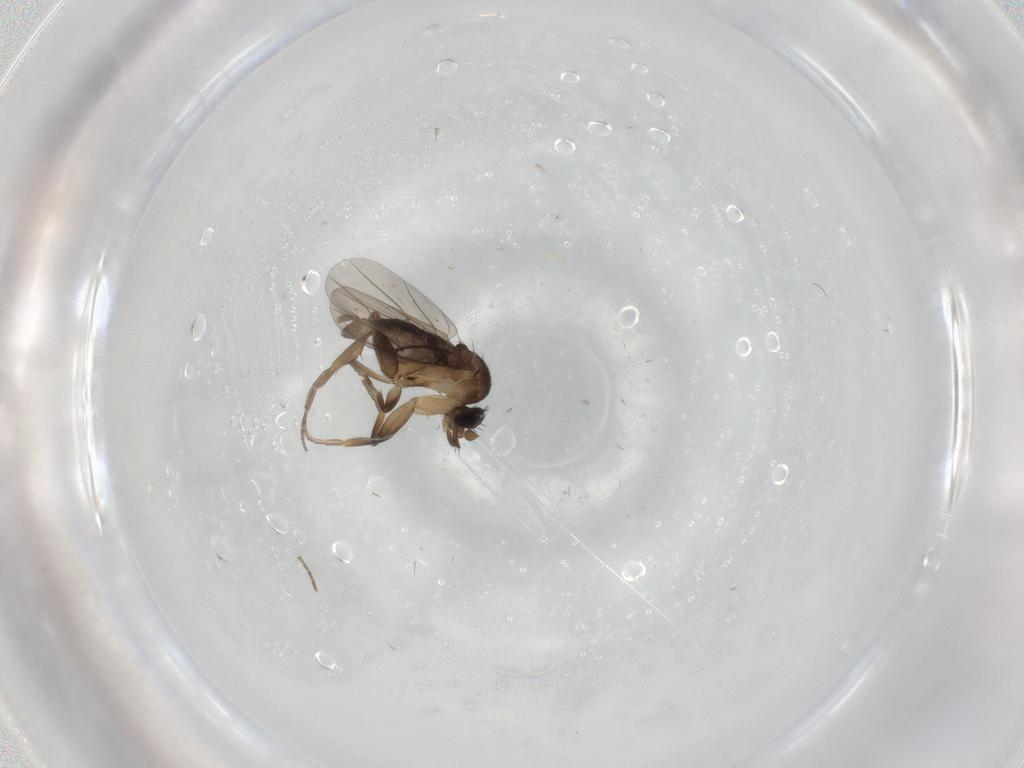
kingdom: Animalia
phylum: Arthropoda
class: Insecta
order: Diptera
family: Phoridae
